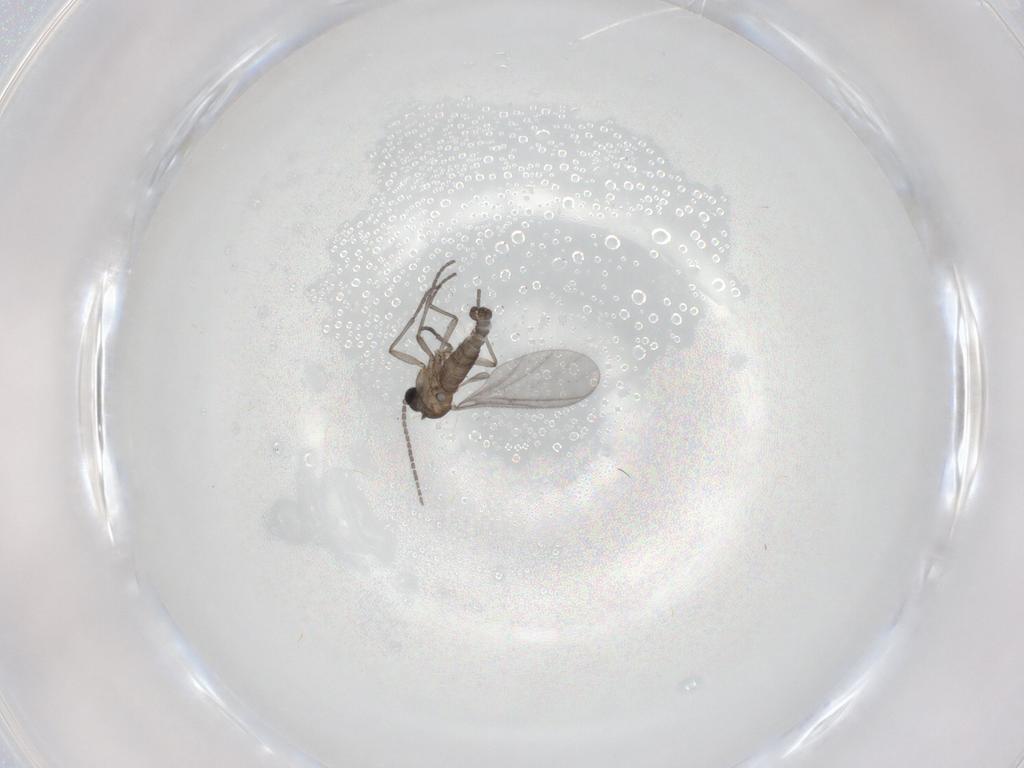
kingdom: Animalia
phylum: Arthropoda
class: Insecta
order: Diptera
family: Sciaridae
